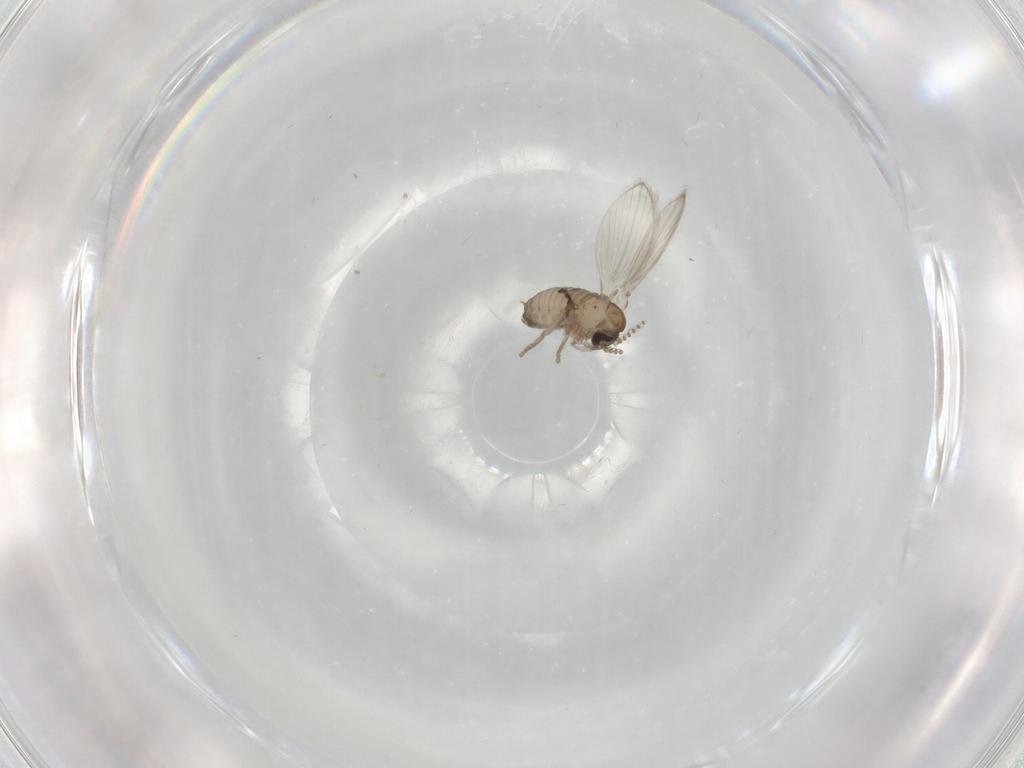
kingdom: Animalia
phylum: Arthropoda
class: Insecta
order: Diptera
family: Psychodidae
